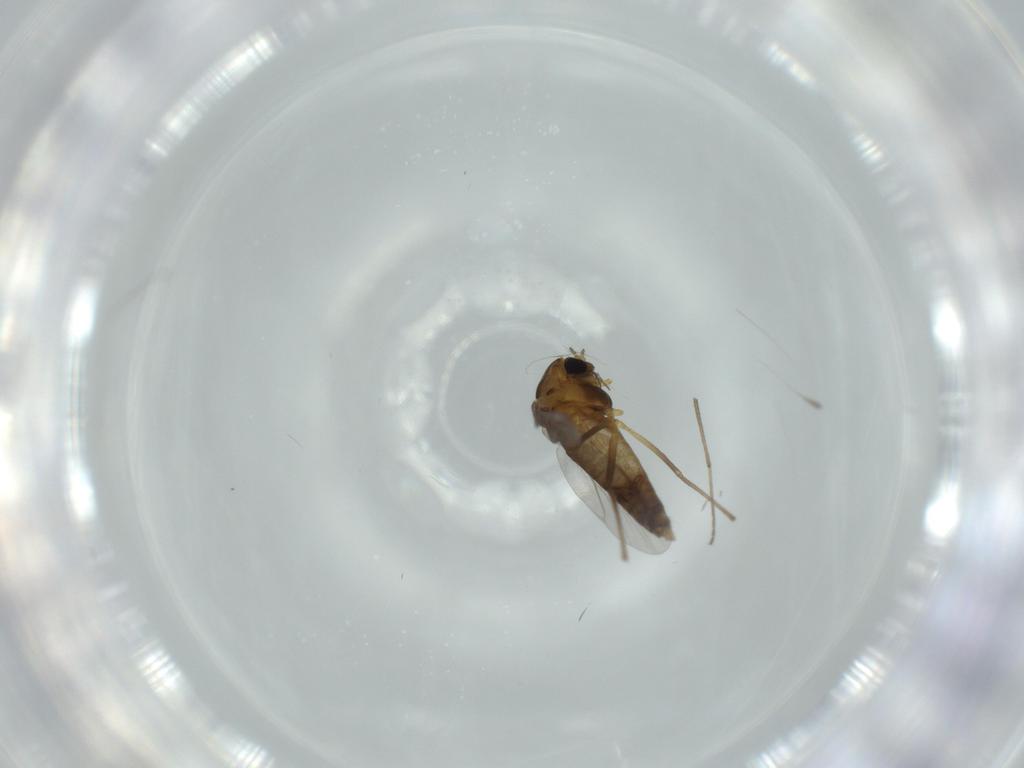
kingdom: Animalia
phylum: Arthropoda
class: Insecta
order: Diptera
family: Chironomidae
